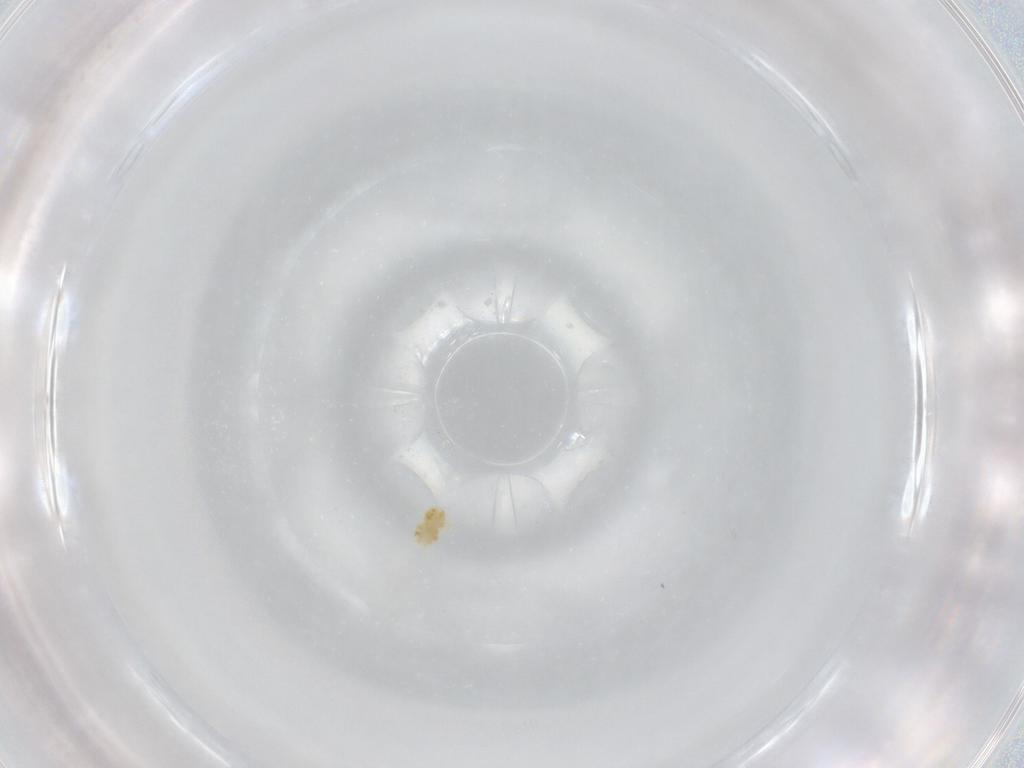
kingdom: Animalia
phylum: Arthropoda
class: Arachnida
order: Trombidiformes
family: Eupodidae
